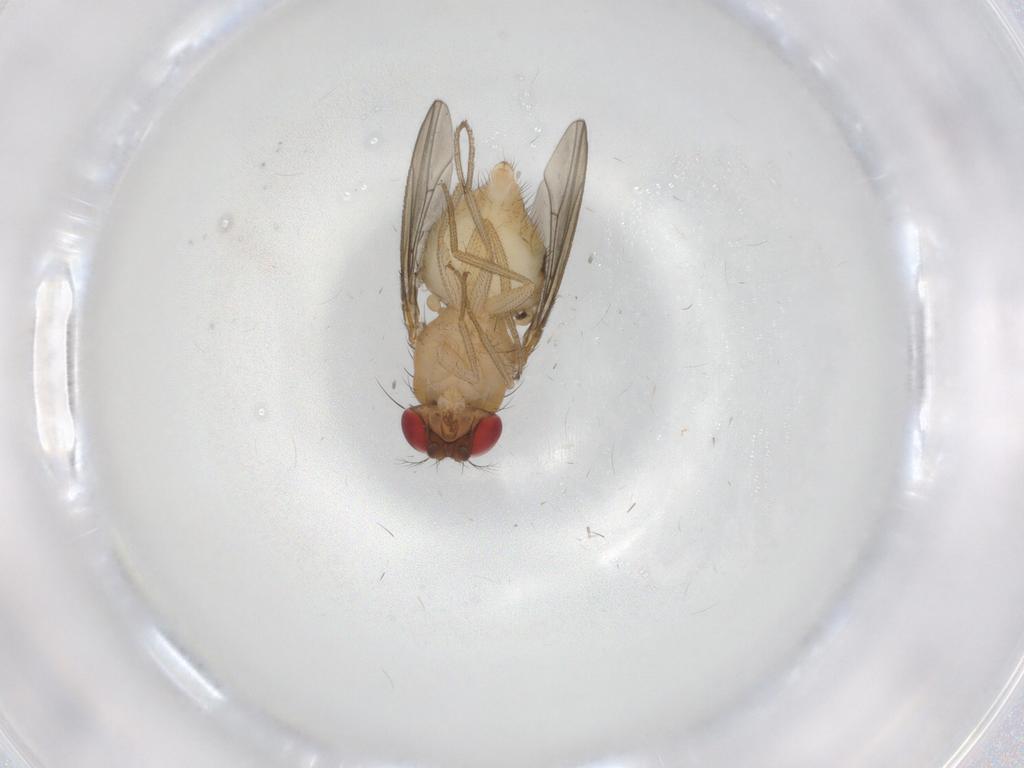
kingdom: Animalia
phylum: Arthropoda
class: Insecta
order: Diptera
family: Drosophilidae
